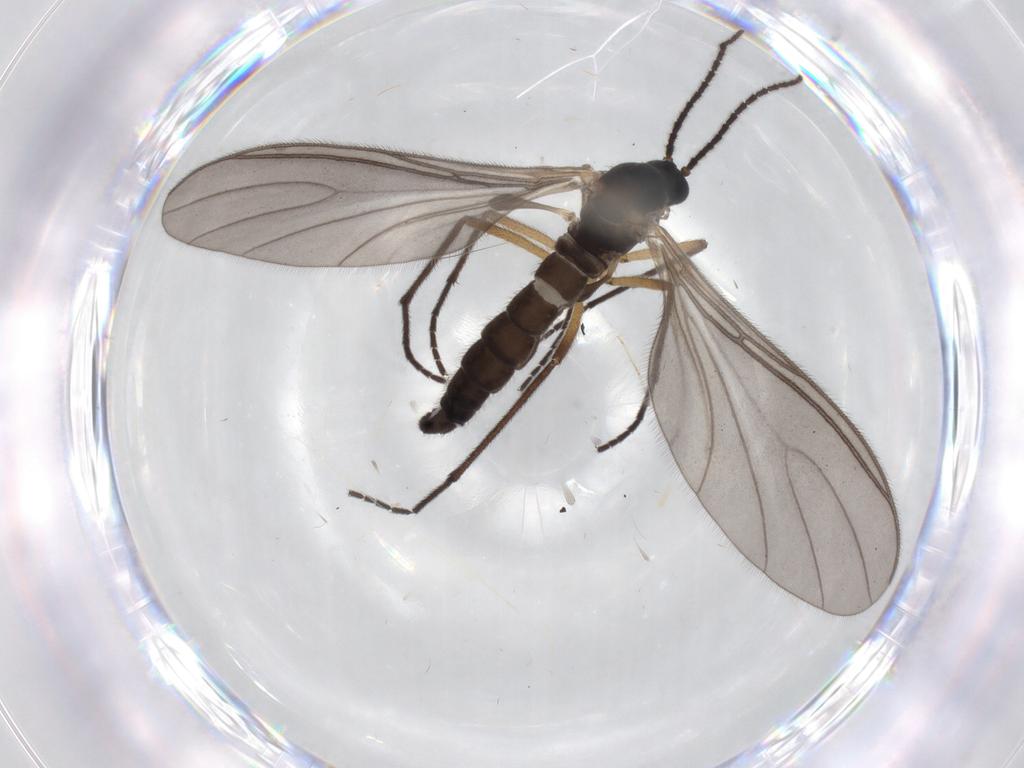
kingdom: Animalia
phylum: Arthropoda
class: Insecta
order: Diptera
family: Sciaridae
